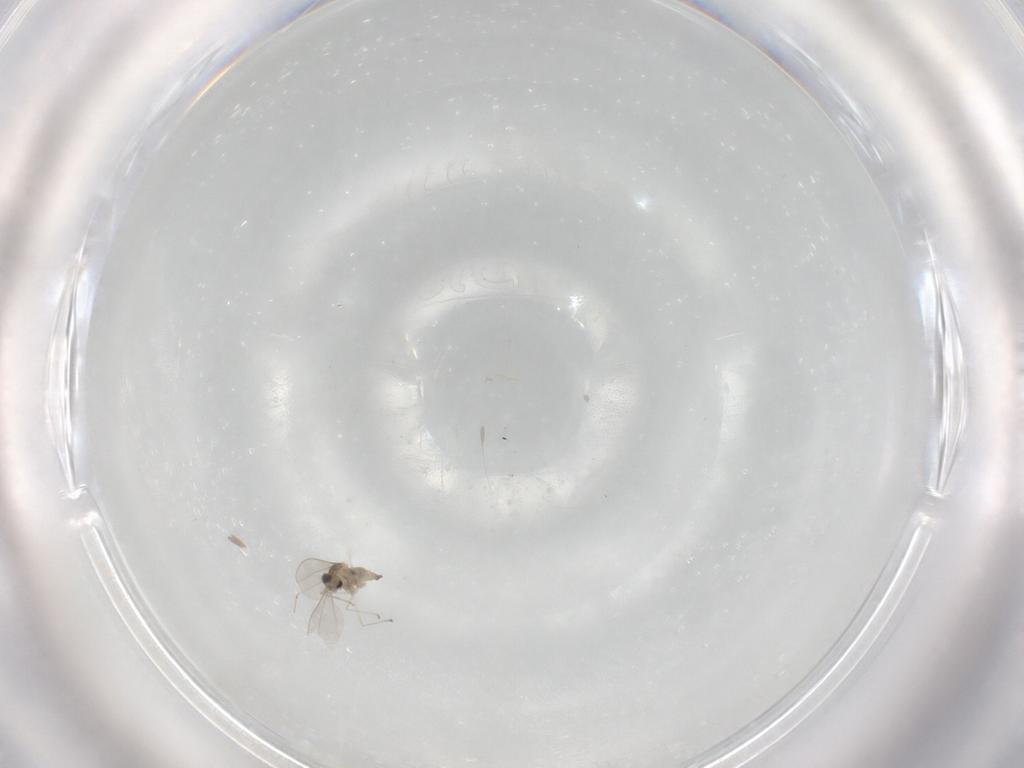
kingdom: Animalia
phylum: Arthropoda
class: Insecta
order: Diptera
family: Cecidomyiidae
